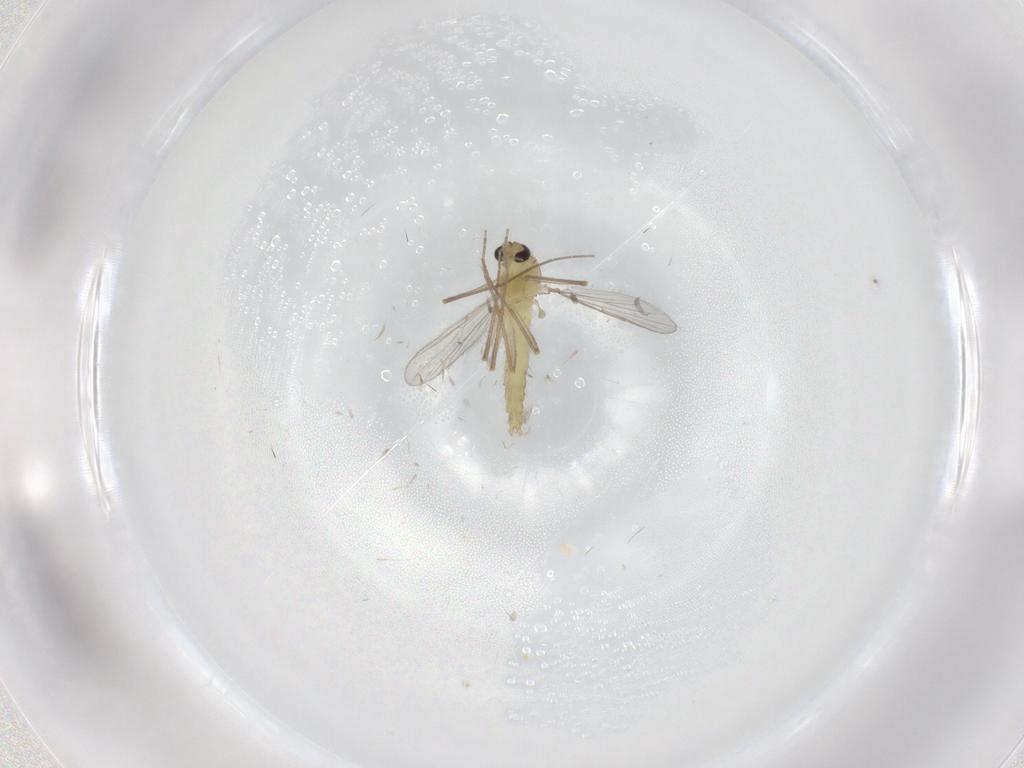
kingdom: Animalia
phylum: Arthropoda
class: Insecta
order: Diptera
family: Chironomidae
